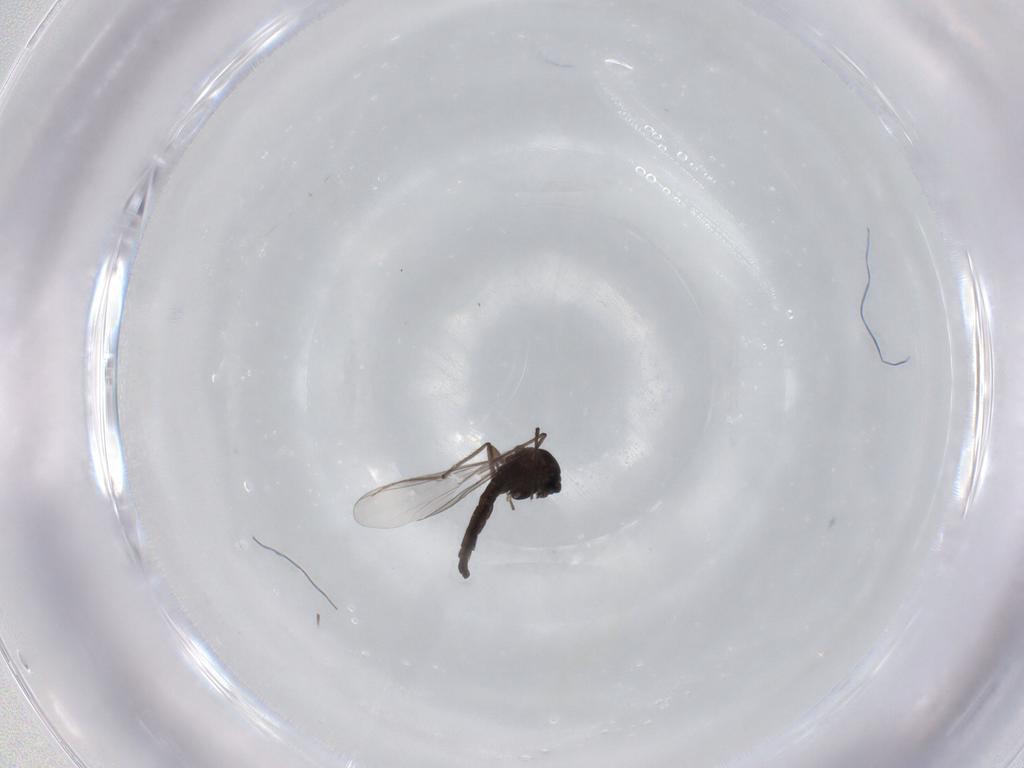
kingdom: Animalia
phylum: Arthropoda
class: Insecta
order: Diptera
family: Chironomidae
